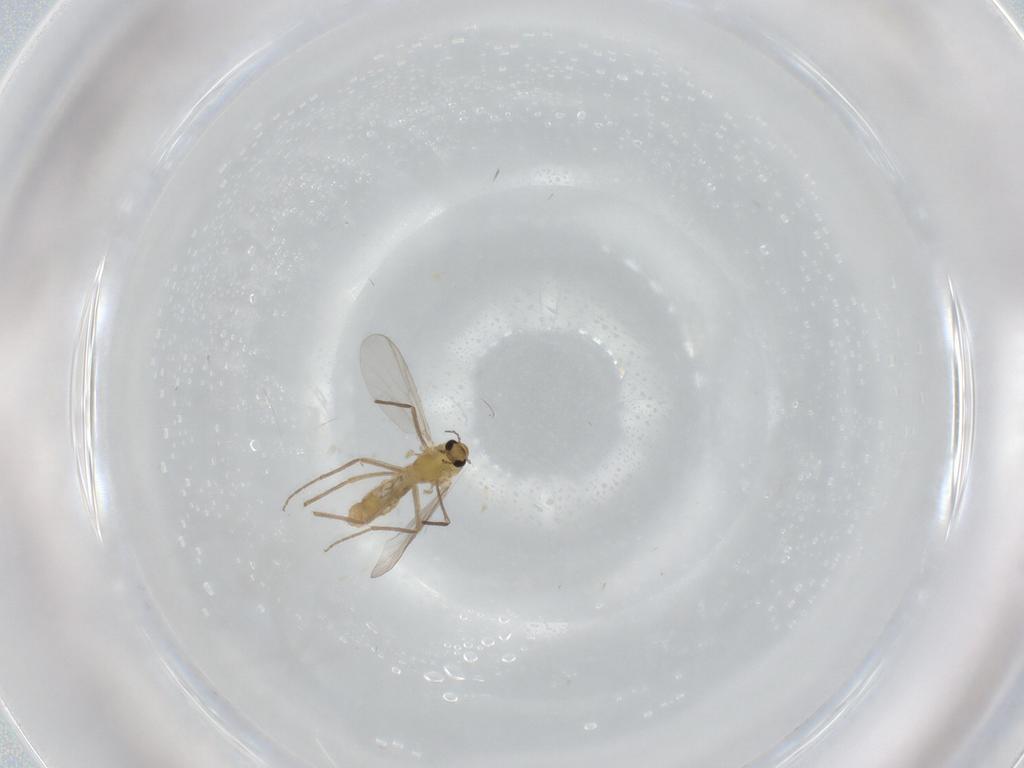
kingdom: Animalia
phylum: Arthropoda
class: Insecta
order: Diptera
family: Chironomidae
